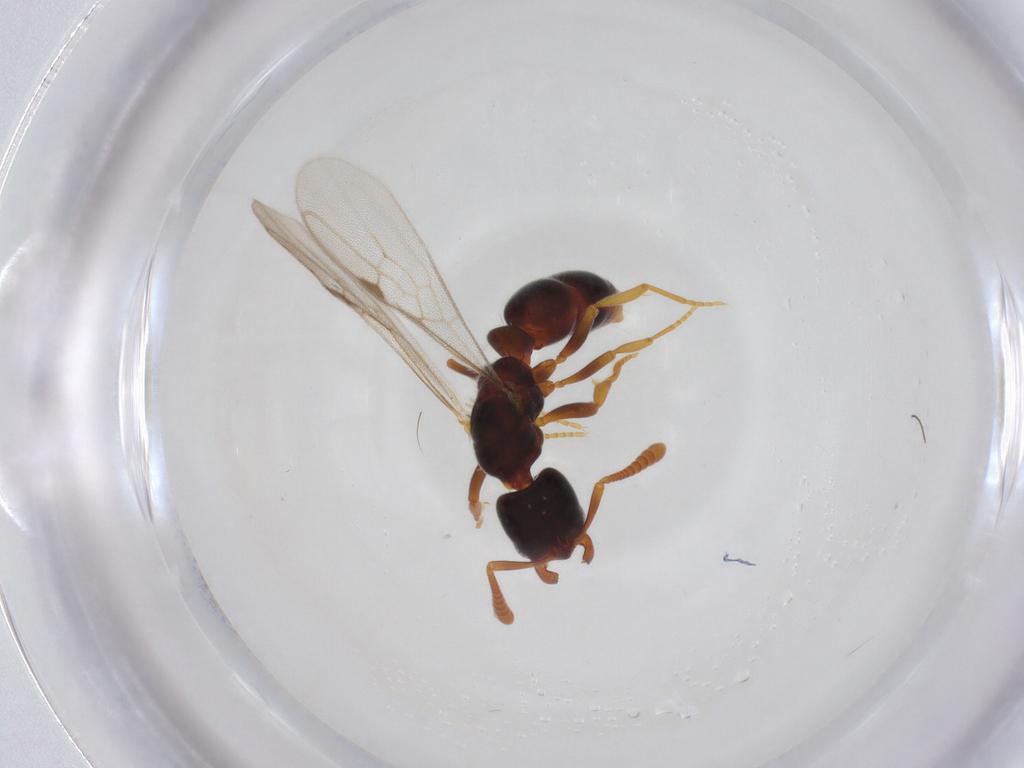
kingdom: Animalia
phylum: Arthropoda
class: Insecta
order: Hymenoptera
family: Formicidae
